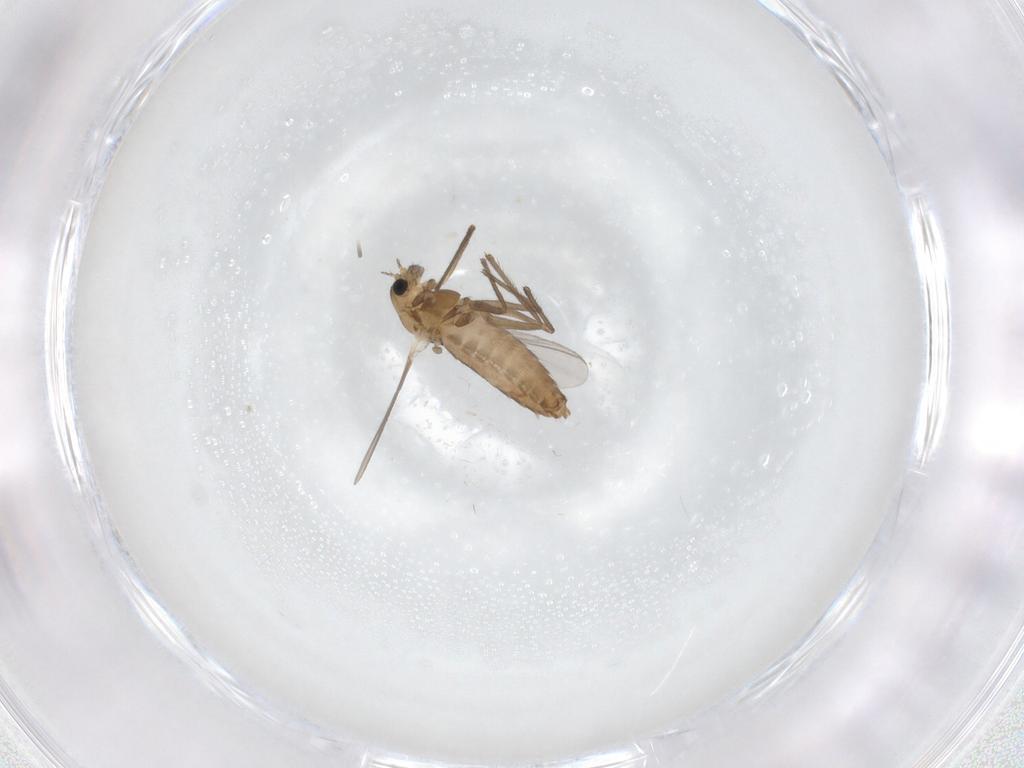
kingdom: Animalia
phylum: Arthropoda
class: Insecta
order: Diptera
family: Chironomidae
